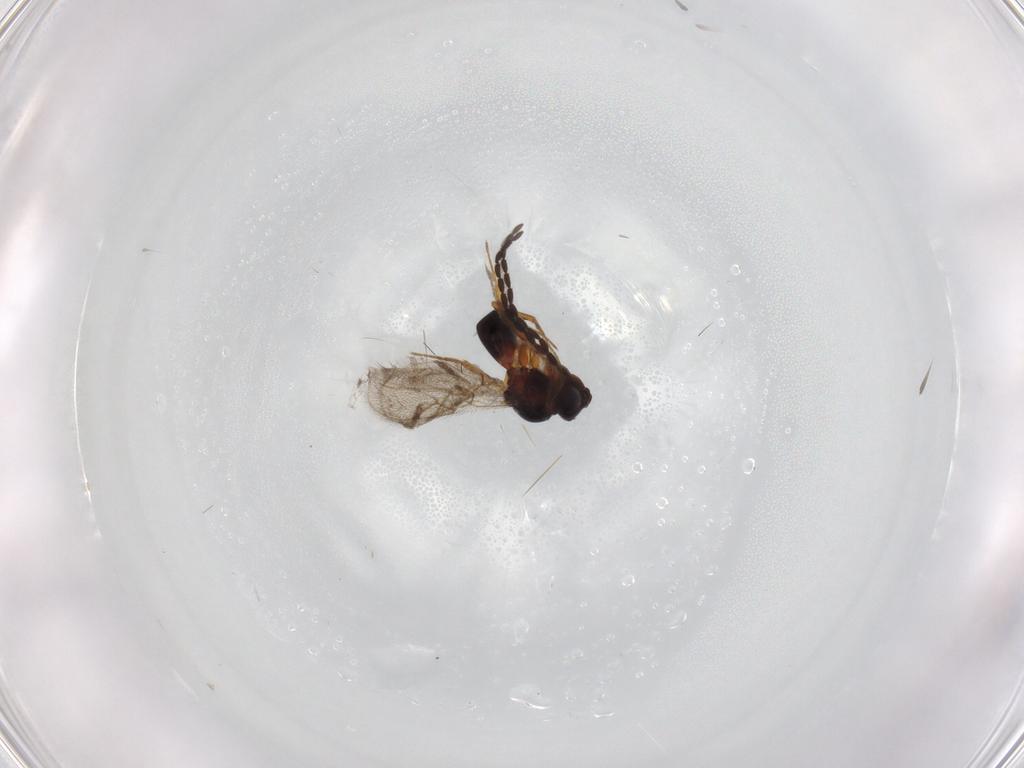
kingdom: Animalia
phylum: Arthropoda
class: Insecta
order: Hymenoptera
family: Figitidae
